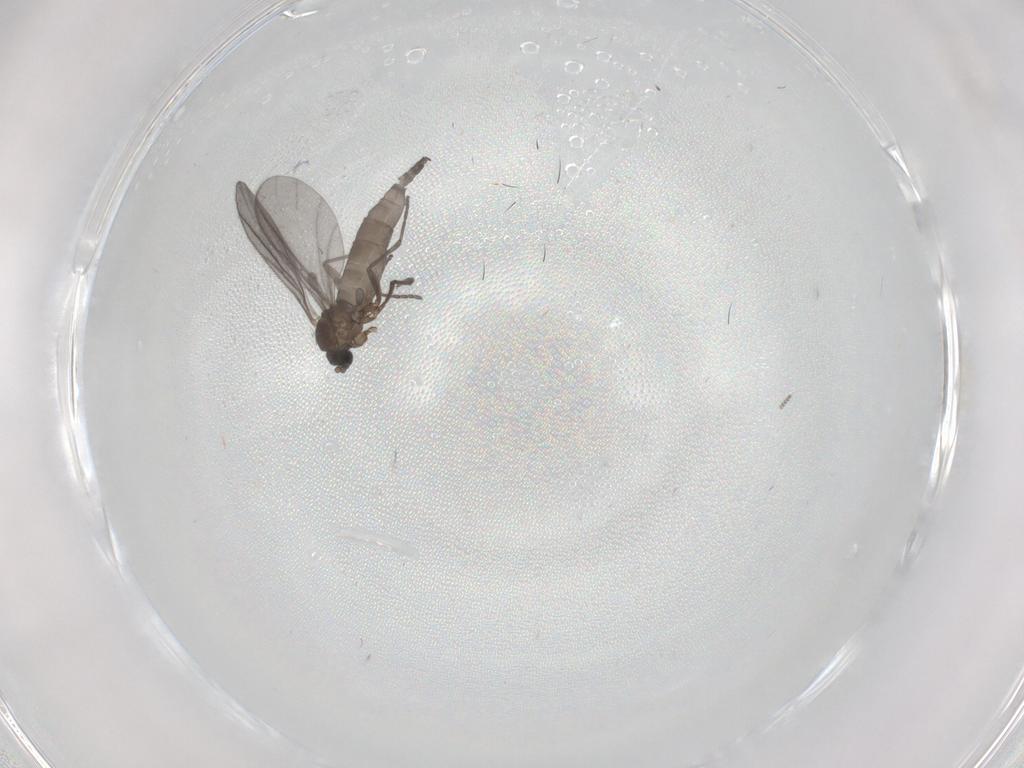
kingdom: Animalia
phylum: Arthropoda
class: Insecta
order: Diptera
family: Sciaridae
